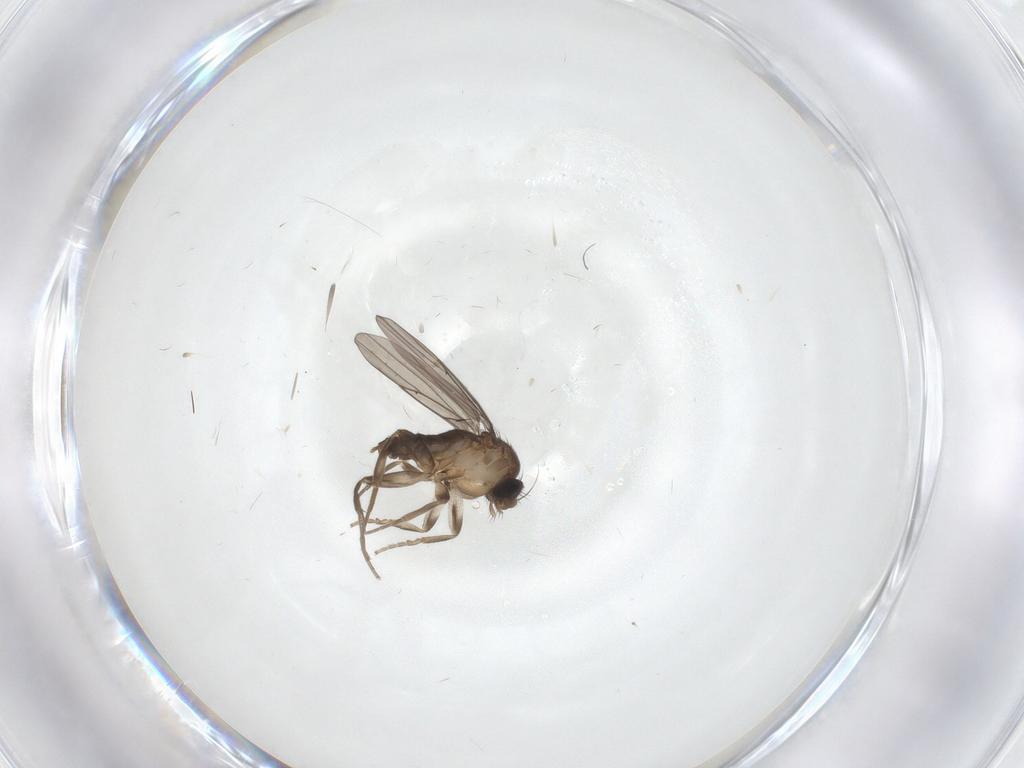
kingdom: Animalia
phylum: Arthropoda
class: Insecta
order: Diptera
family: Phoridae
